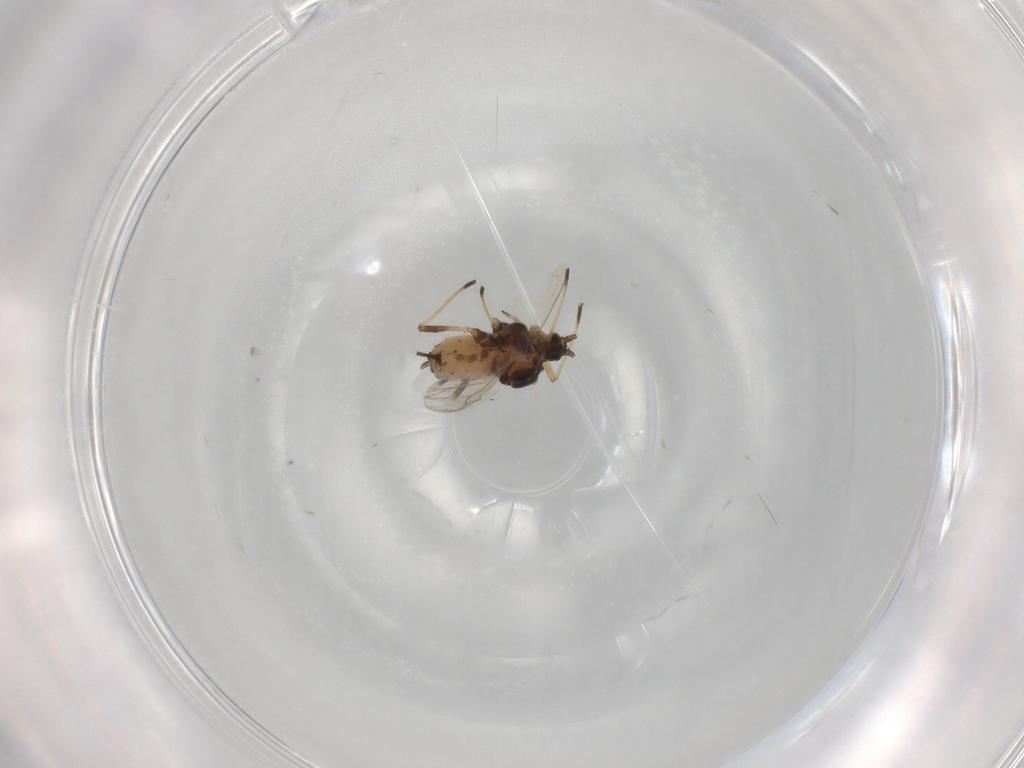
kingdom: Animalia
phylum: Arthropoda
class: Insecta
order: Hemiptera
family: Aphididae
